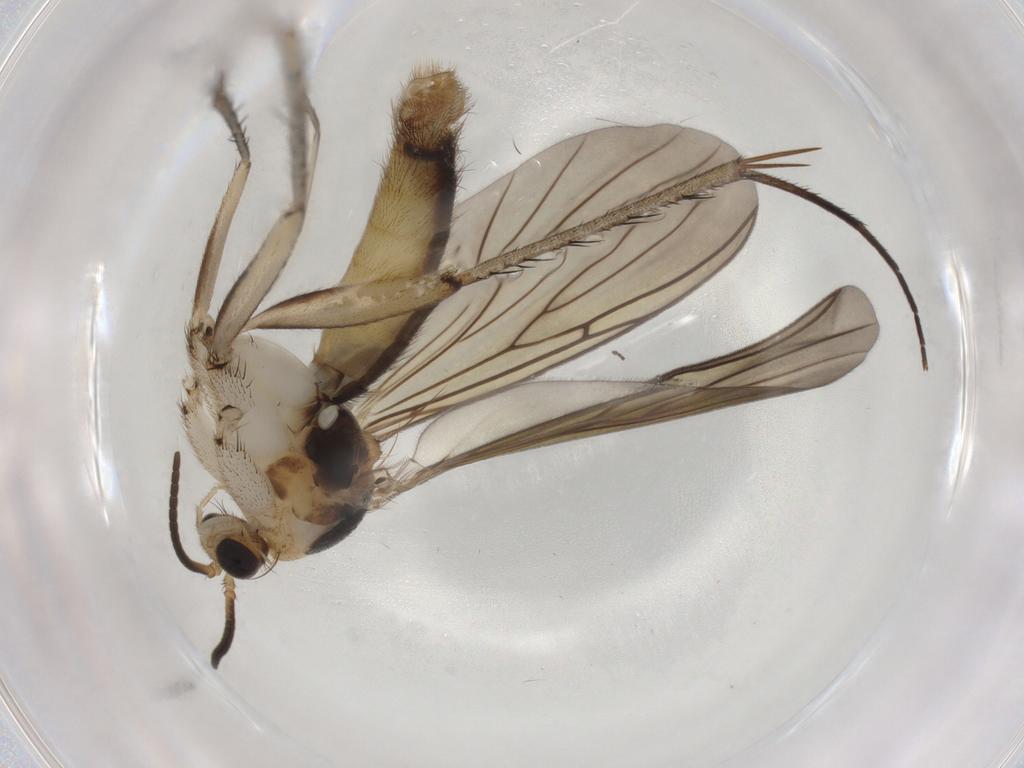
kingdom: Animalia
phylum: Arthropoda
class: Insecta
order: Diptera
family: Mycetophilidae
